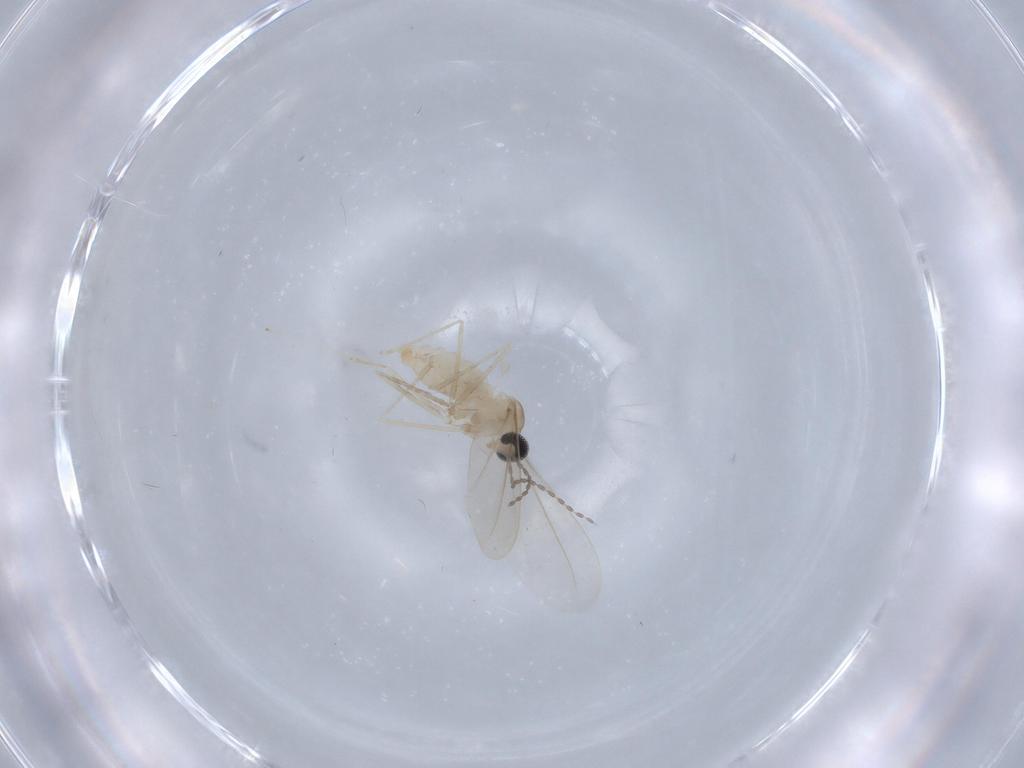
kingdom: Animalia
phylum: Arthropoda
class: Insecta
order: Diptera
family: Cecidomyiidae
